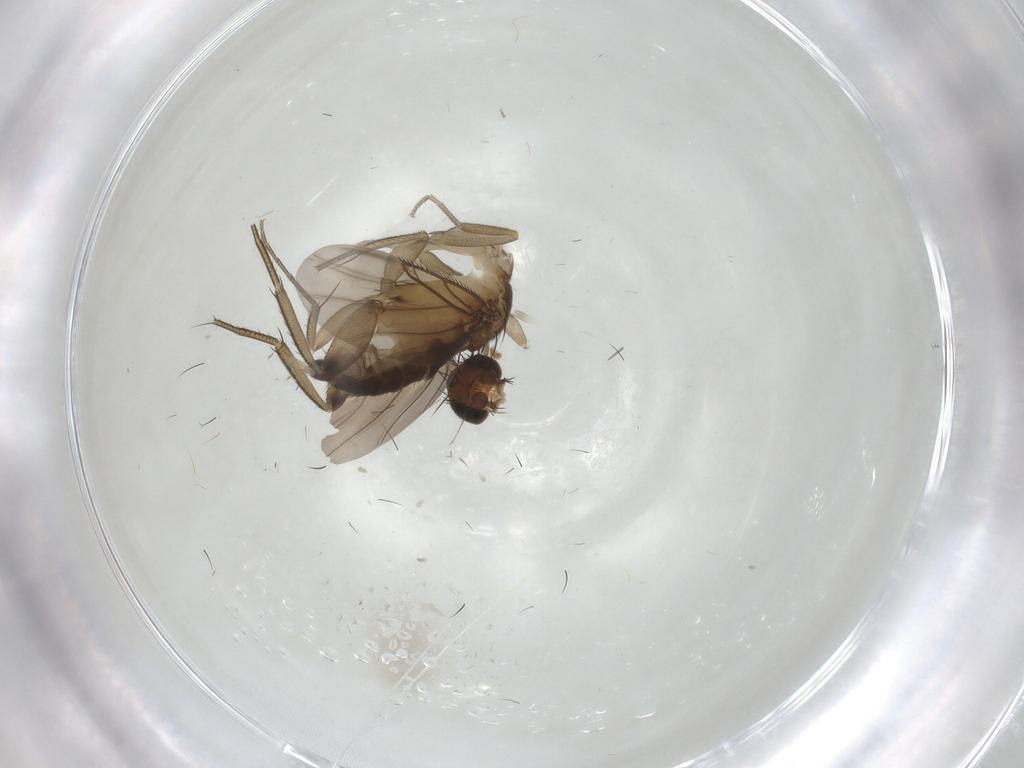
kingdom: Animalia
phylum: Arthropoda
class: Insecta
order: Diptera
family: Phoridae
